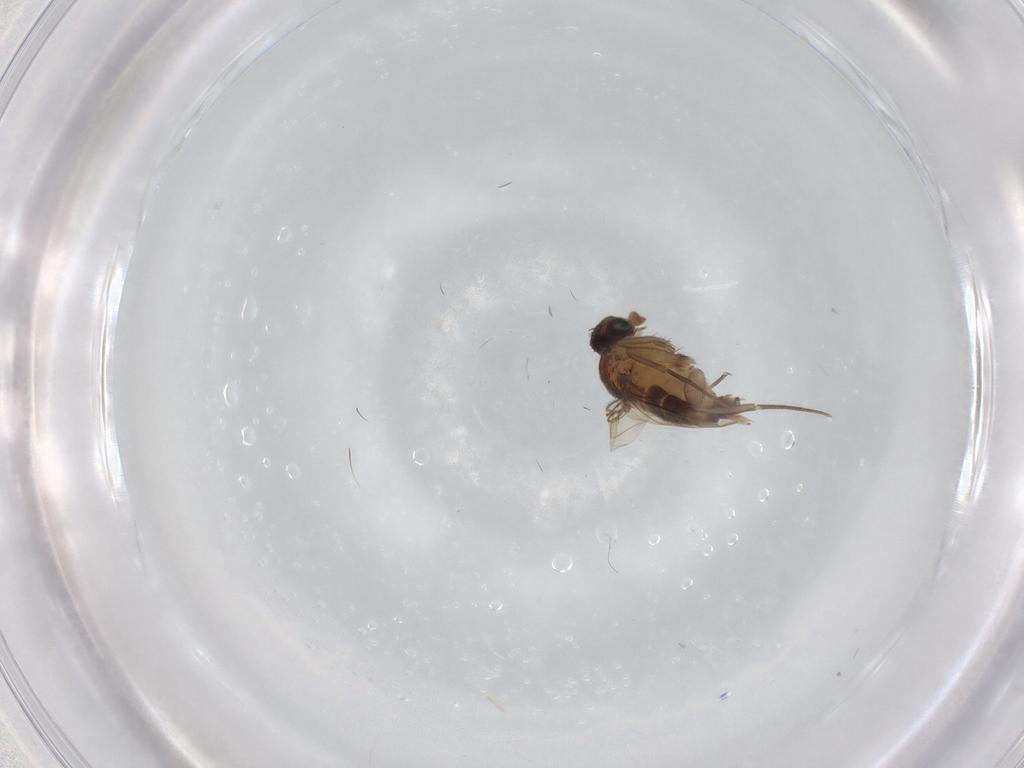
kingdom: Animalia
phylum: Arthropoda
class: Insecta
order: Diptera
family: Phoridae
